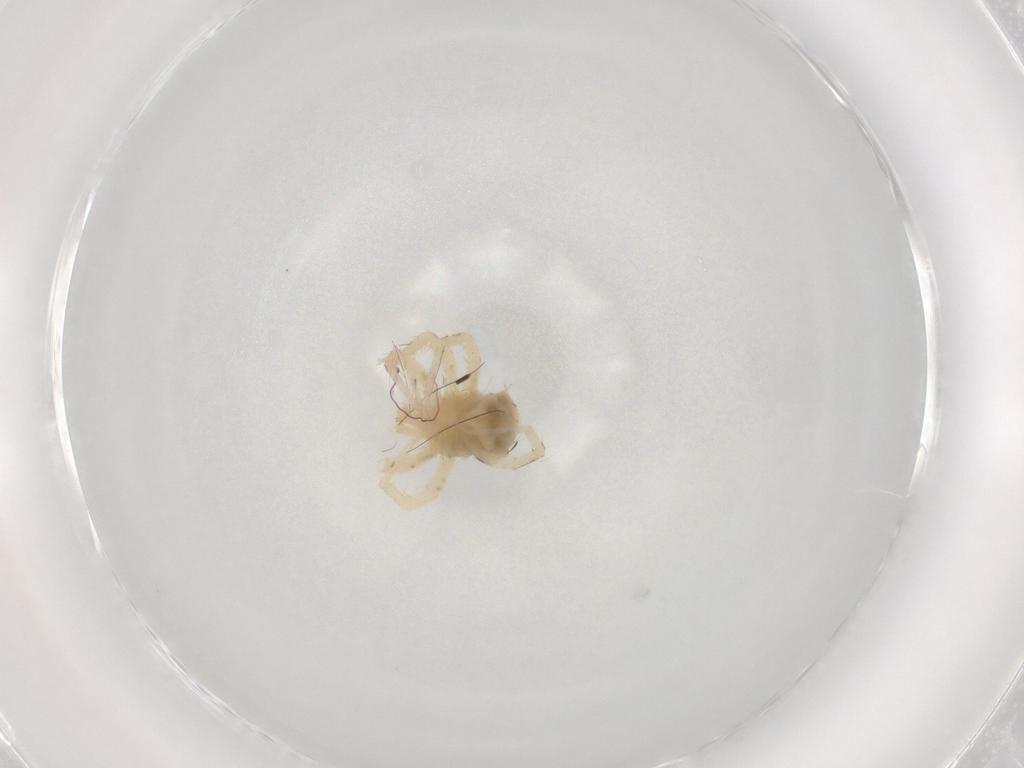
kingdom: Animalia
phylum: Arthropoda
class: Arachnida
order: Trombidiformes
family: Anystidae
